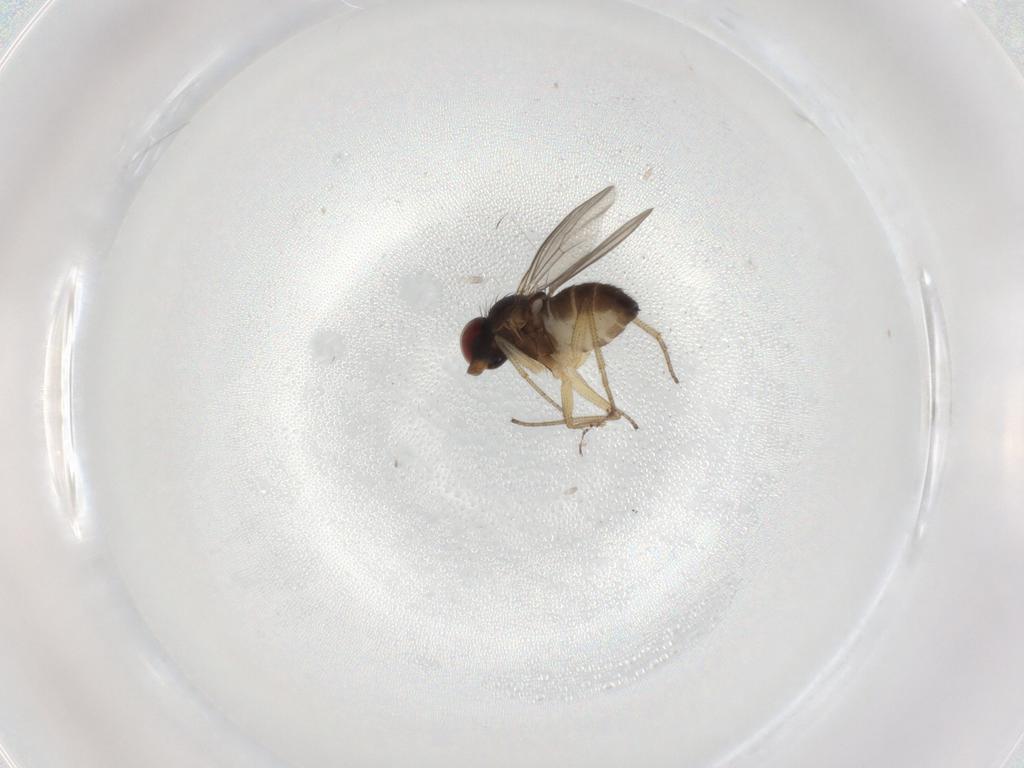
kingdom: Animalia
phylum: Arthropoda
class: Insecta
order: Diptera
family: Dolichopodidae
